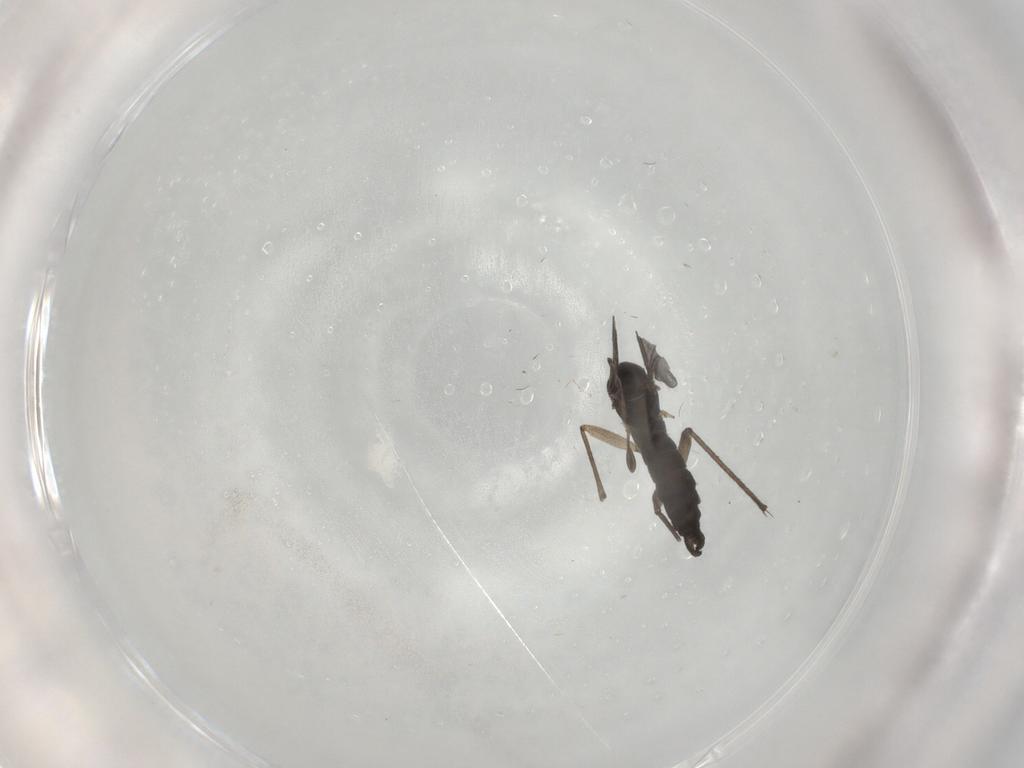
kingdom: Animalia
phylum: Arthropoda
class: Insecta
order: Diptera
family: Sciaridae
